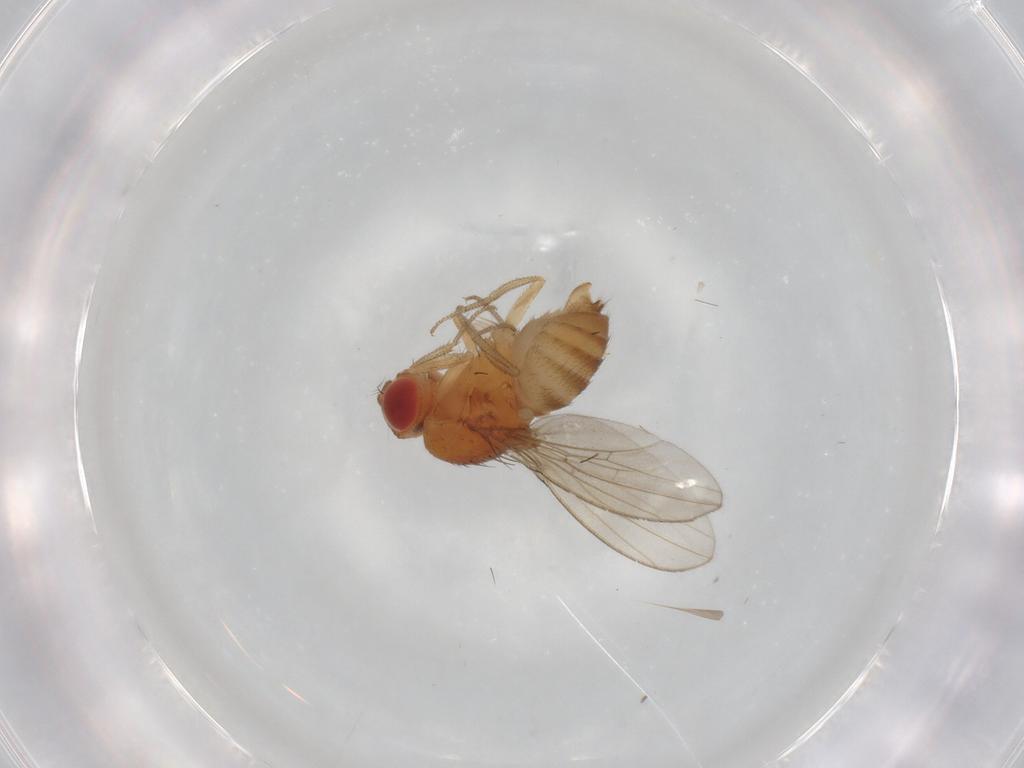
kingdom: Animalia
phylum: Arthropoda
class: Insecta
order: Diptera
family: Drosophilidae
